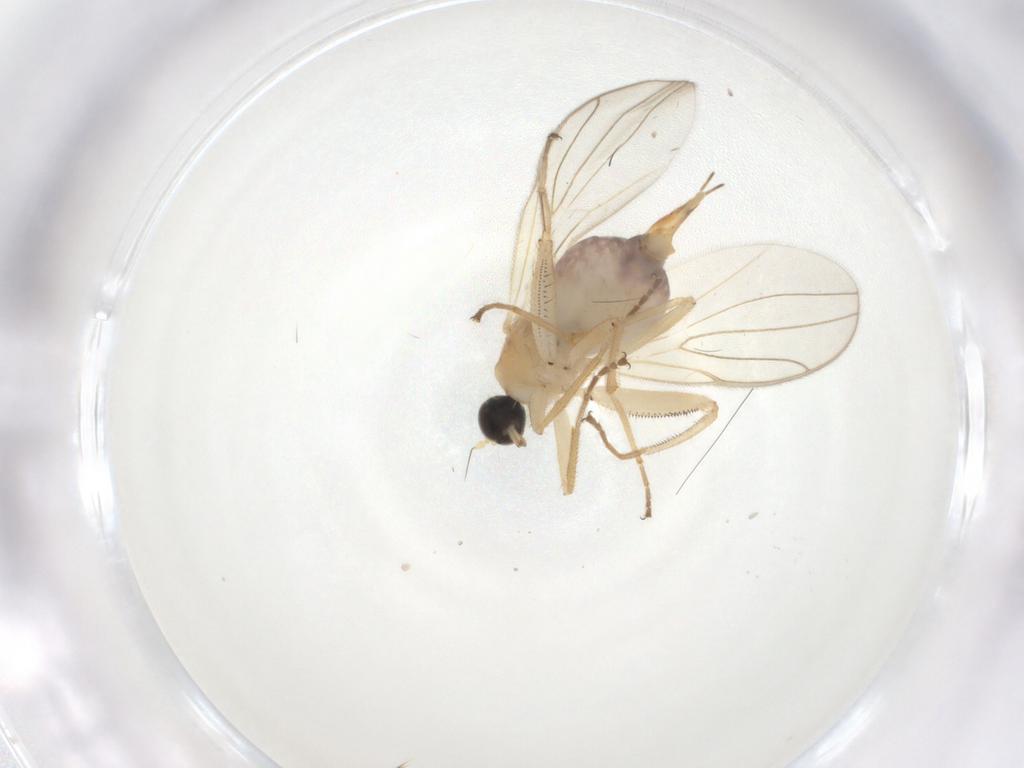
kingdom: Animalia
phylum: Arthropoda
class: Insecta
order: Diptera
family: Hybotidae
